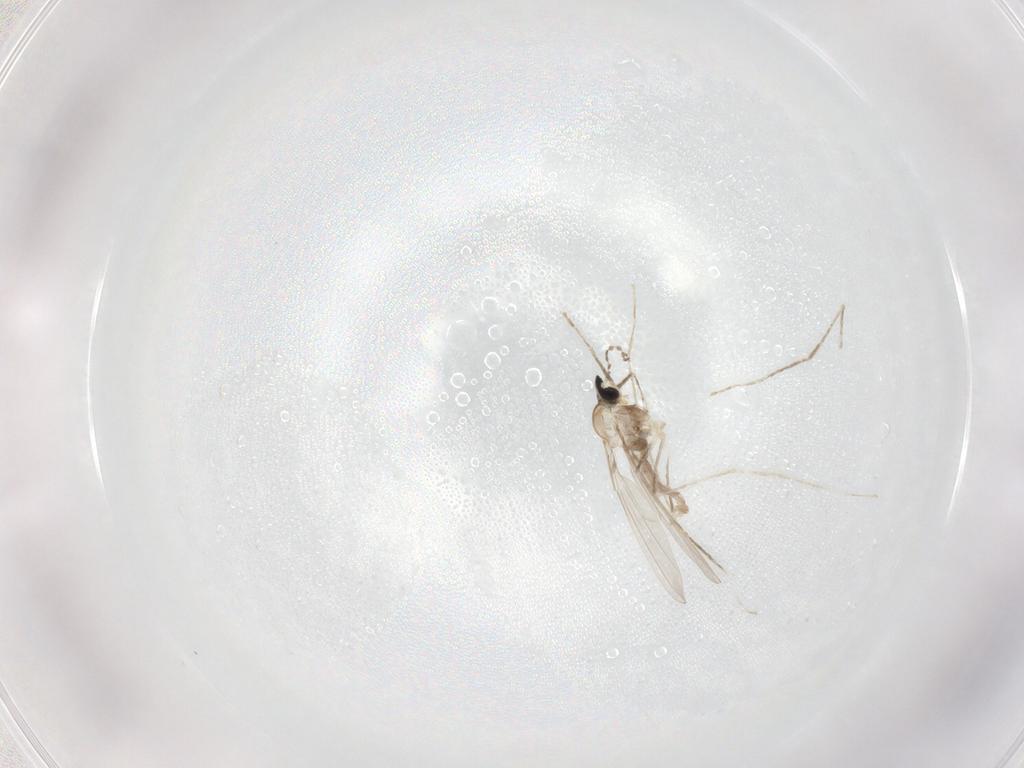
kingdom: Animalia
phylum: Arthropoda
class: Insecta
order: Diptera
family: Cecidomyiidae
